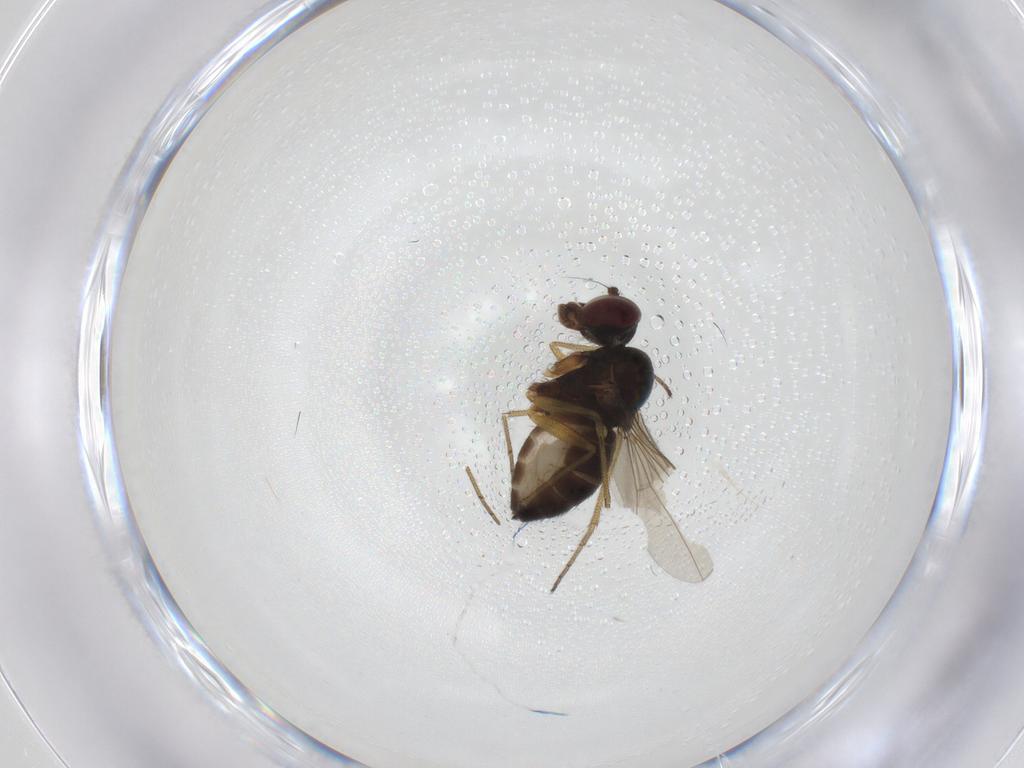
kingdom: Animalia
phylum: Arthropoda
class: Insecta
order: Diptera
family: Dolichopodidae
